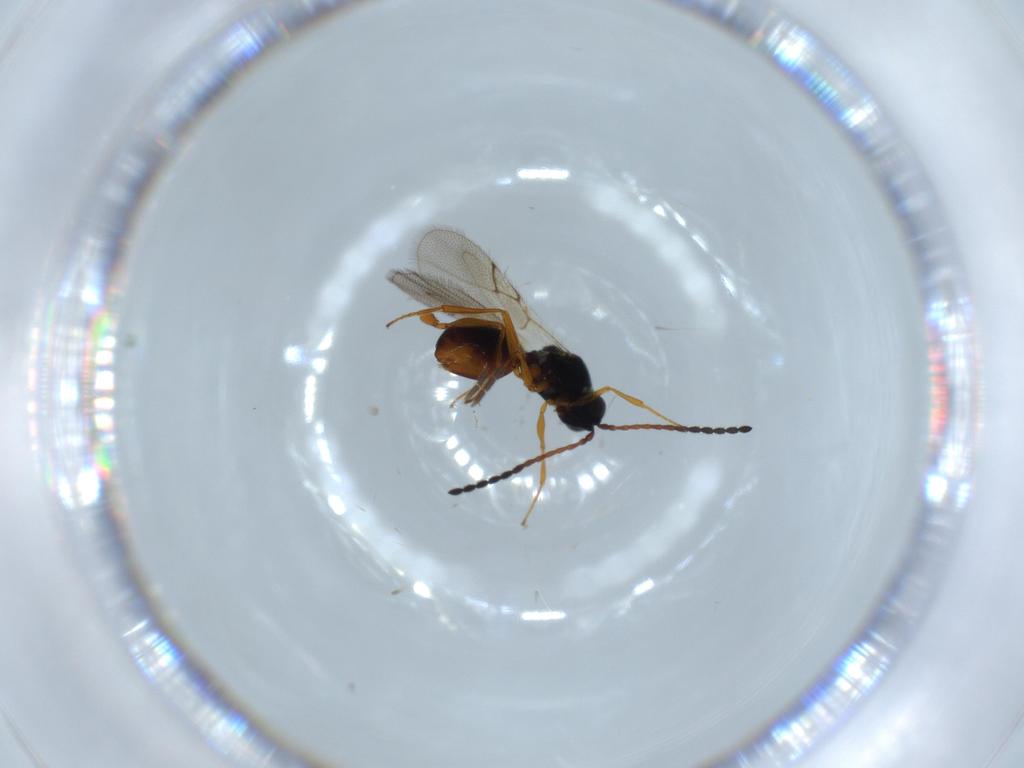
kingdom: Animalia
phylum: Arthropoda
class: Insecta
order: Hymenoptera
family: Figitidae
